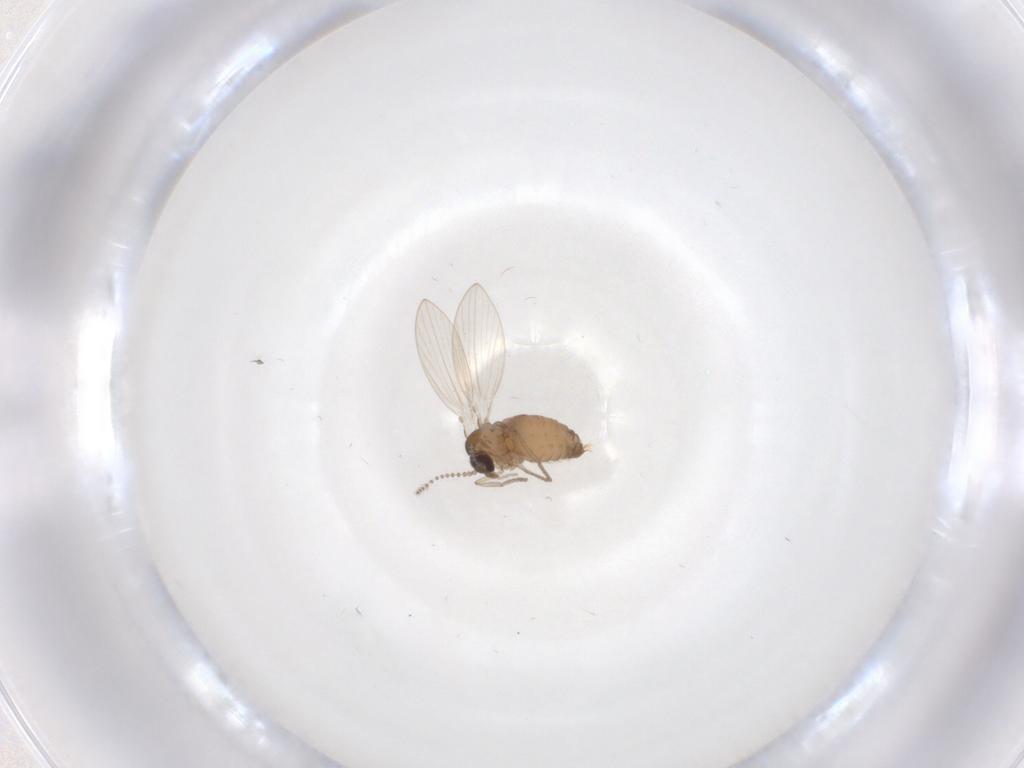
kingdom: Animalia
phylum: Arthropoda
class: Insecta
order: Diptera
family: Psychodidae
